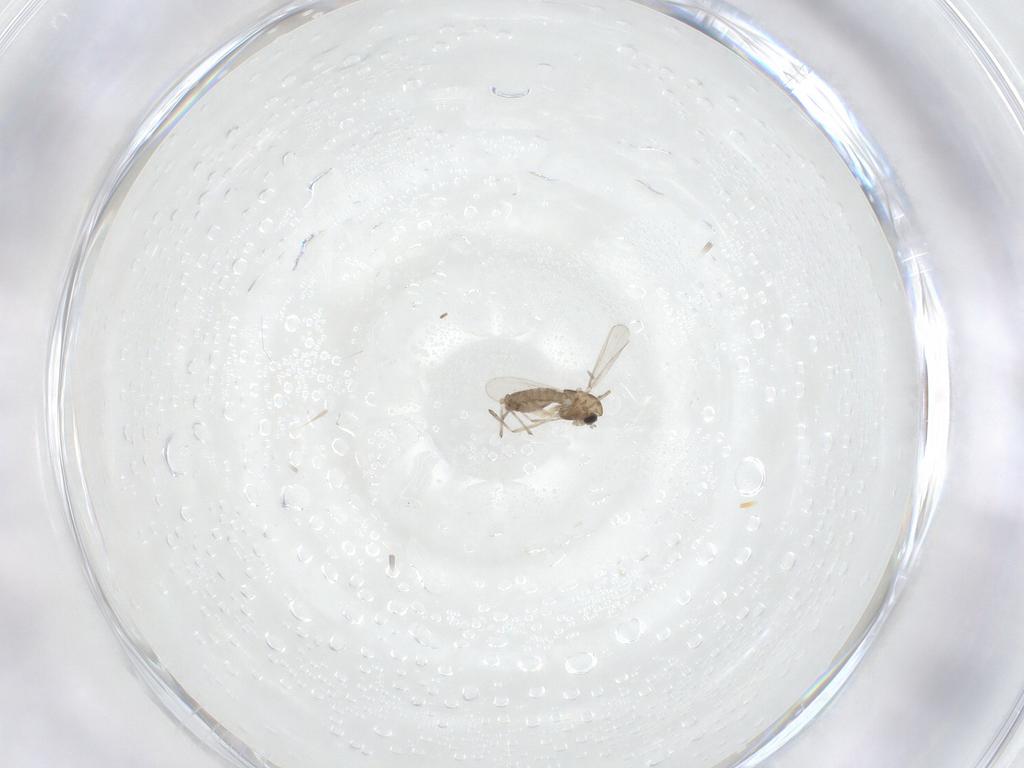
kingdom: Animalia
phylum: Arthropoda
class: Insecta
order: Diptera
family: Chironomidae
